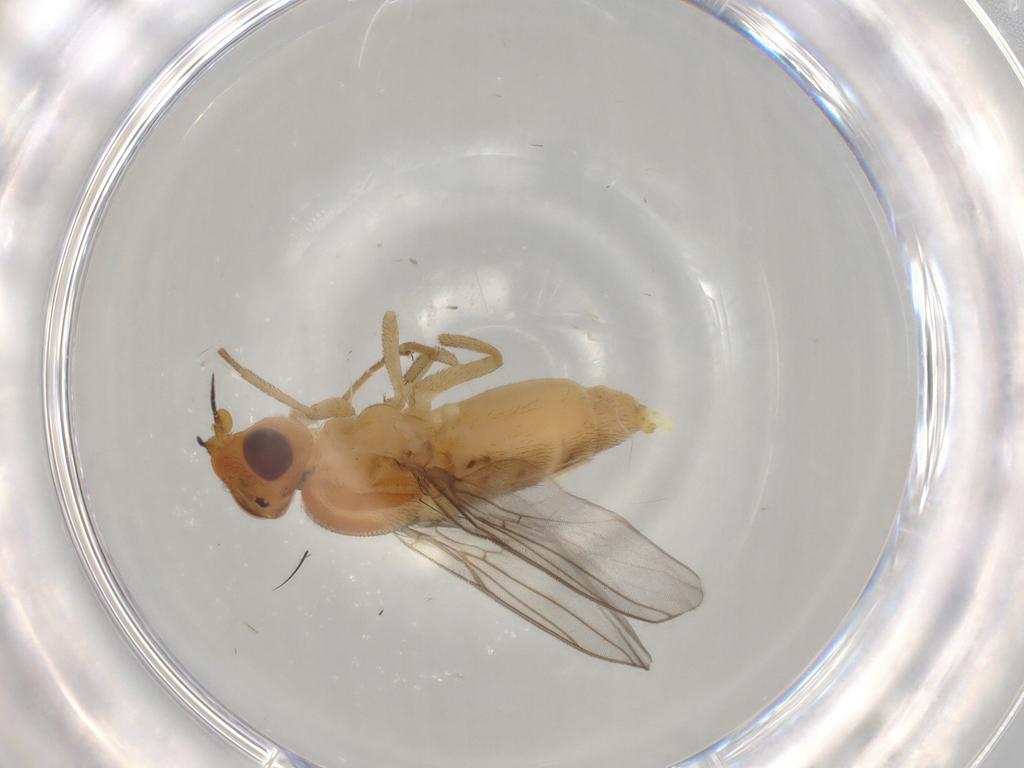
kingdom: Animalia
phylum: Arthropoda
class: Insecta
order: Diptera
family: Chloropidae
